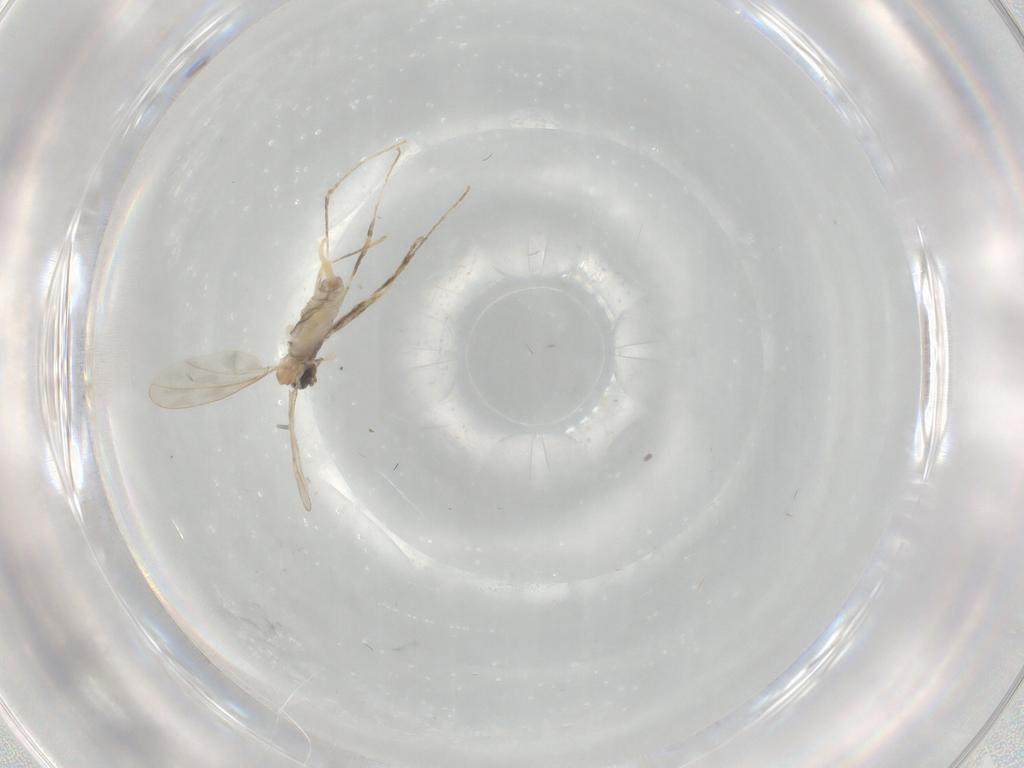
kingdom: Animalia
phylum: Arthropoda
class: Insecta
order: Diptera
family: Cecidomyiidae
